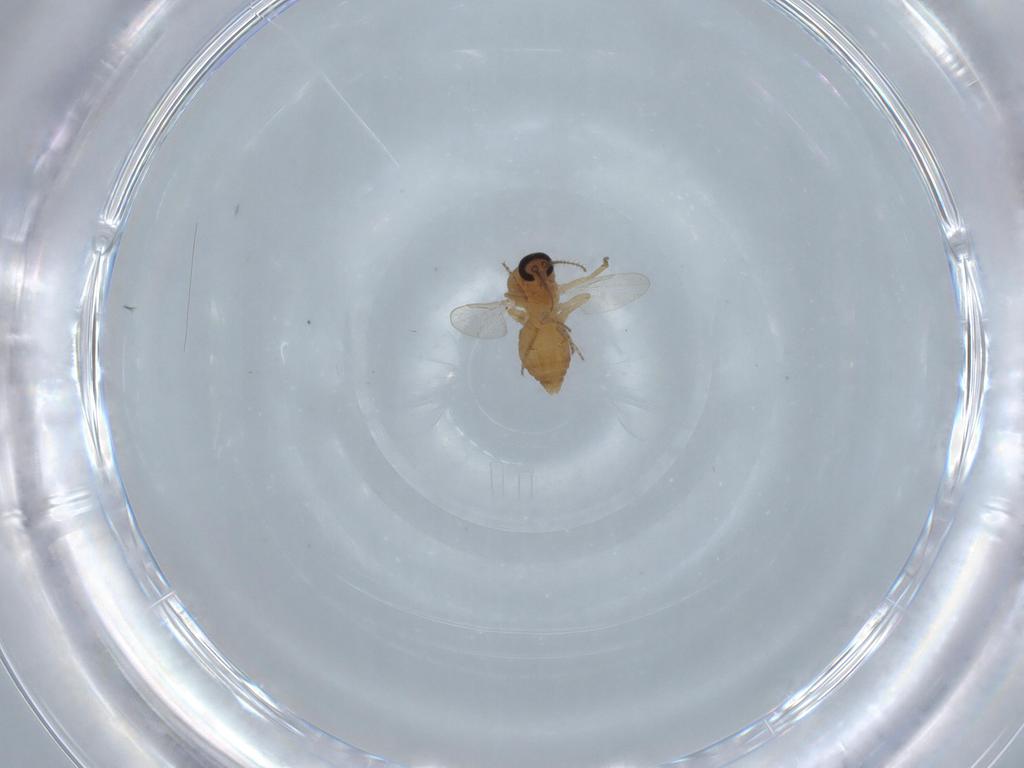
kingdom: Animalia
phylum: Arthropoda
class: Insecta
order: Diptera
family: Ceratopogonidae
